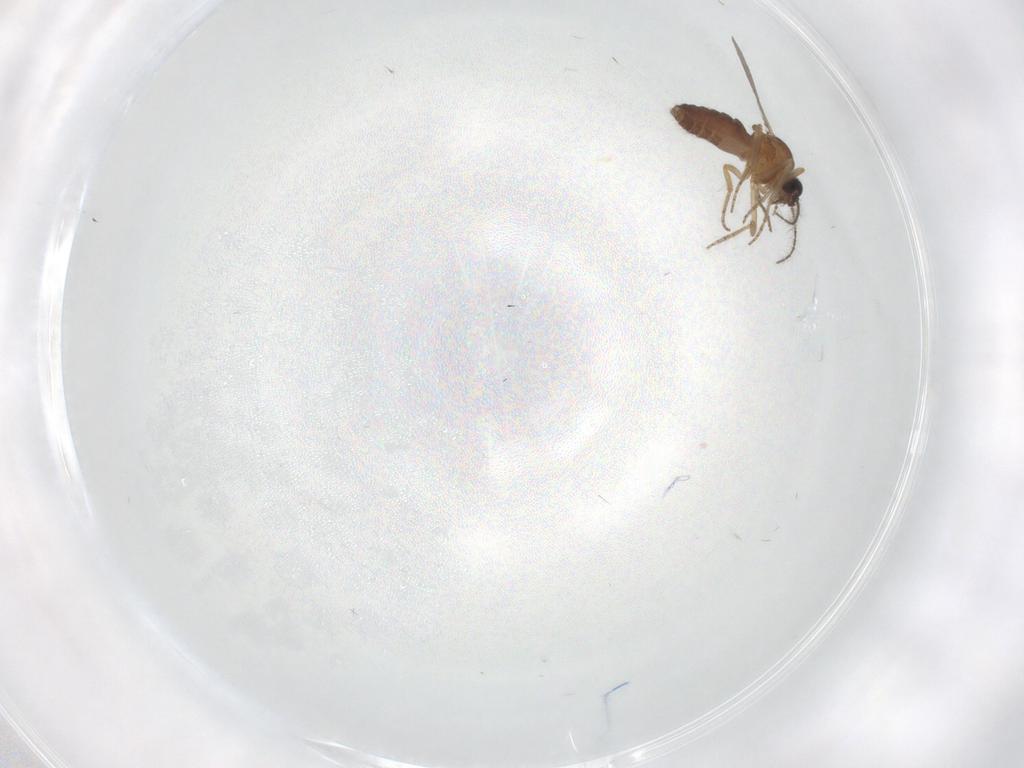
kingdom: Animalia
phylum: Arthropoda
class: Insecta
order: Diptera
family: Ceratopogonidae
